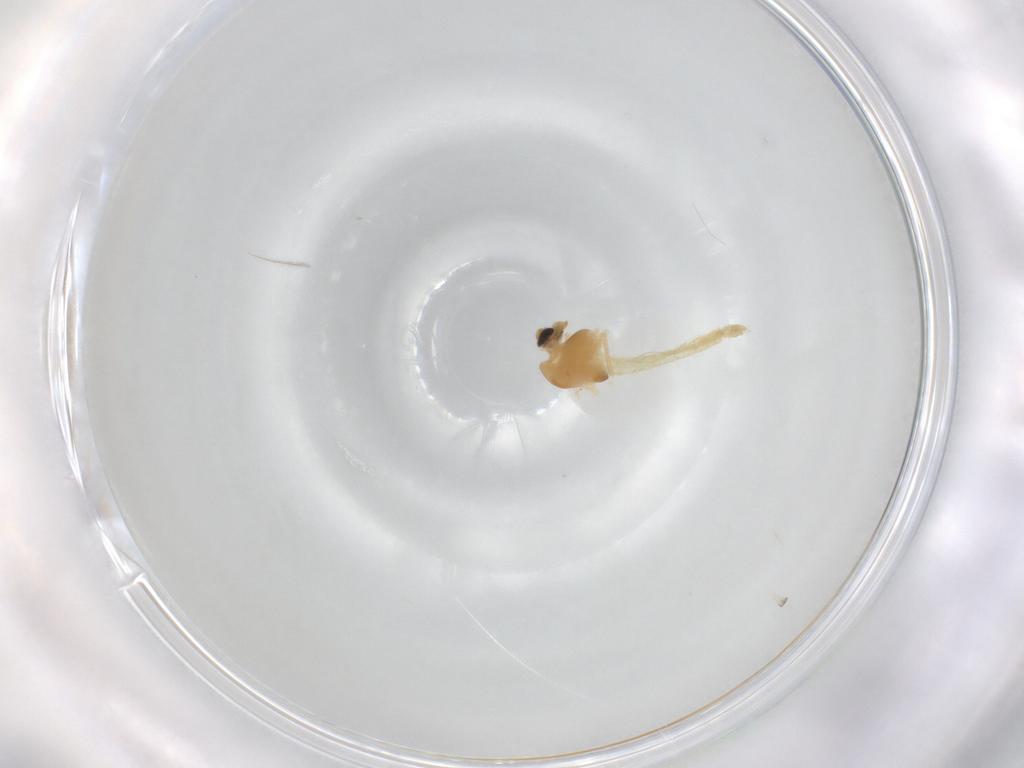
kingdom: Animalia
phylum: Arthropoda
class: Insecta
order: Diptera
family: Chironomidae
